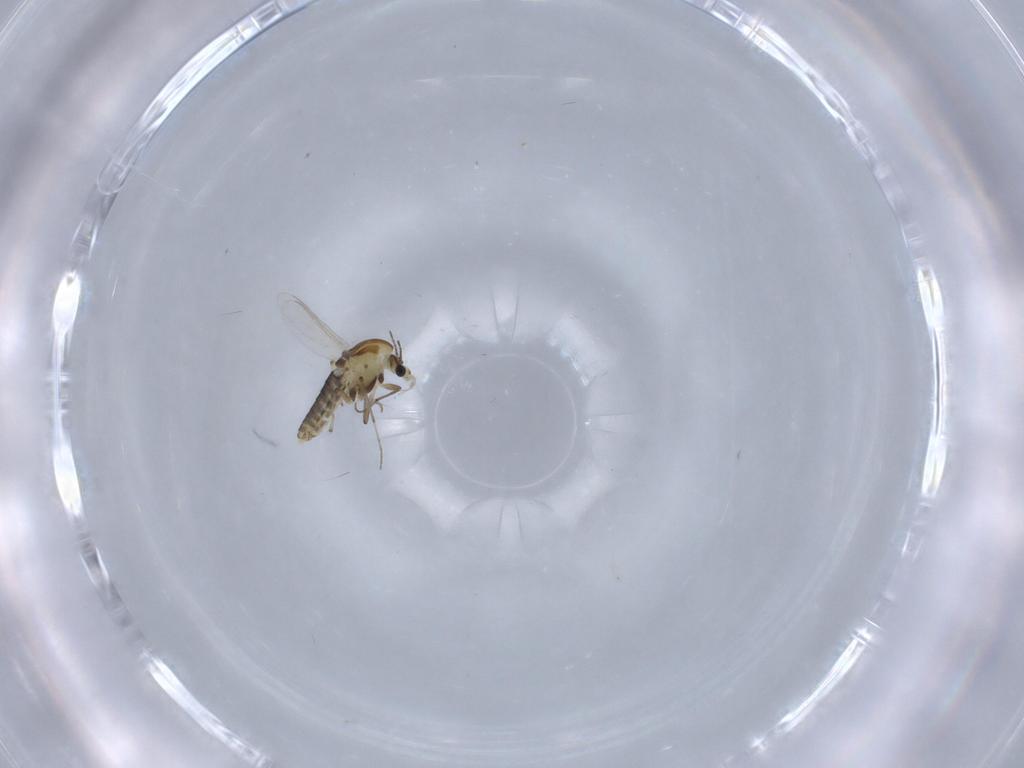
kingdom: Animalia
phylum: Arthropoda
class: Insecta
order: Diptera
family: Chironomidae
